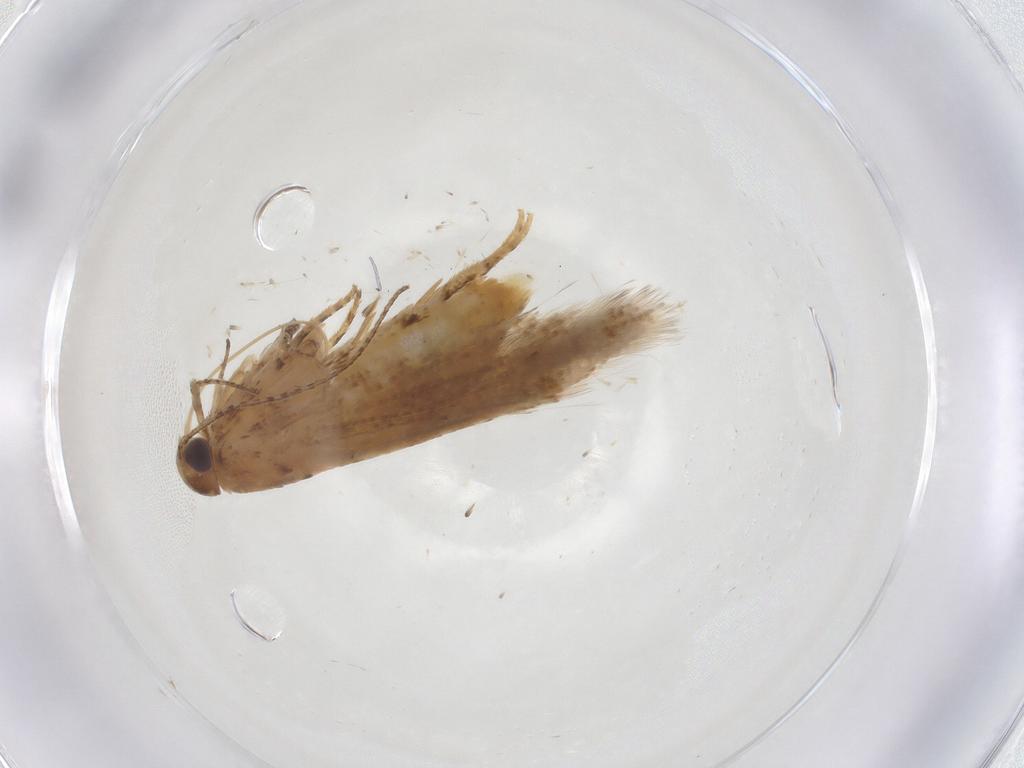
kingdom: Animalia
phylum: Arthropoda
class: Insecta
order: Lepidoptera
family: Gelechiidae
